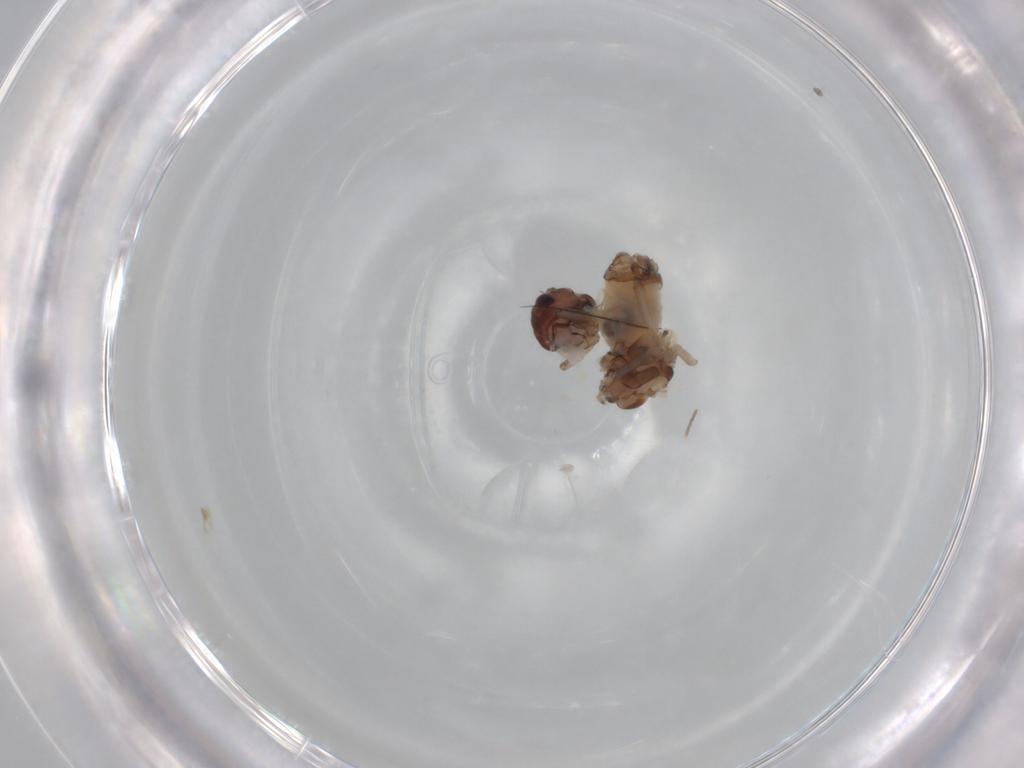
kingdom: Animalia
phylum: Arthropoda
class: Insecta
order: Psocodea
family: Peripsocidae
